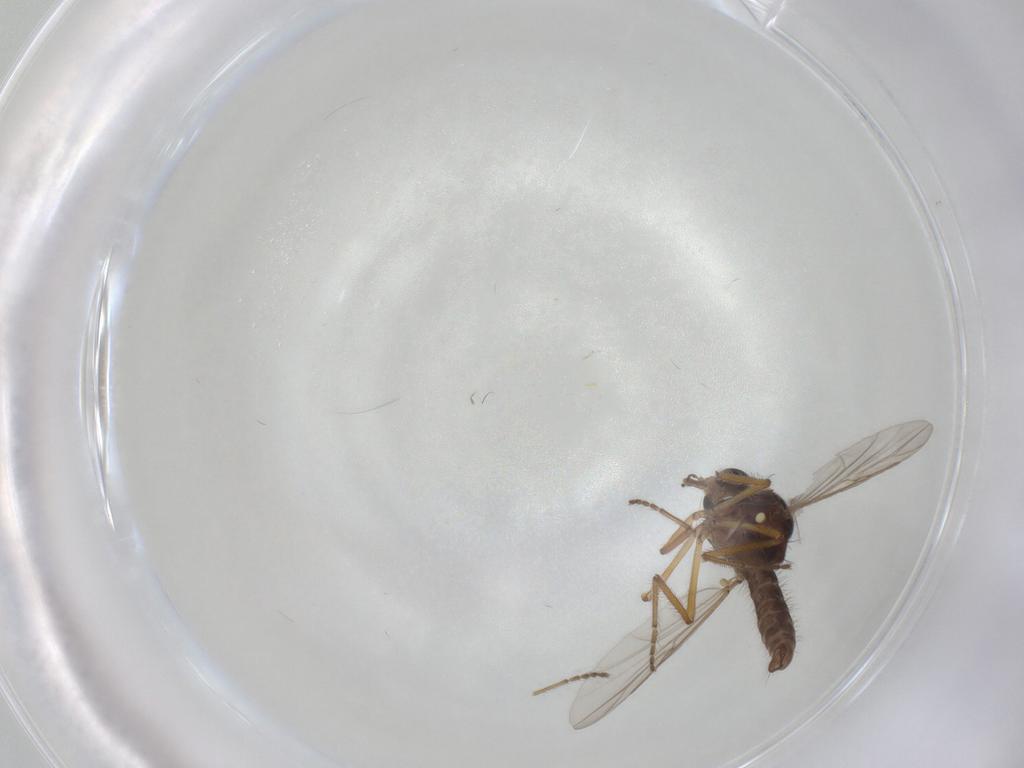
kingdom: Animalia
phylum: Arthropoda
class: Insecta
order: Diptera
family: Ceratopogonidae
